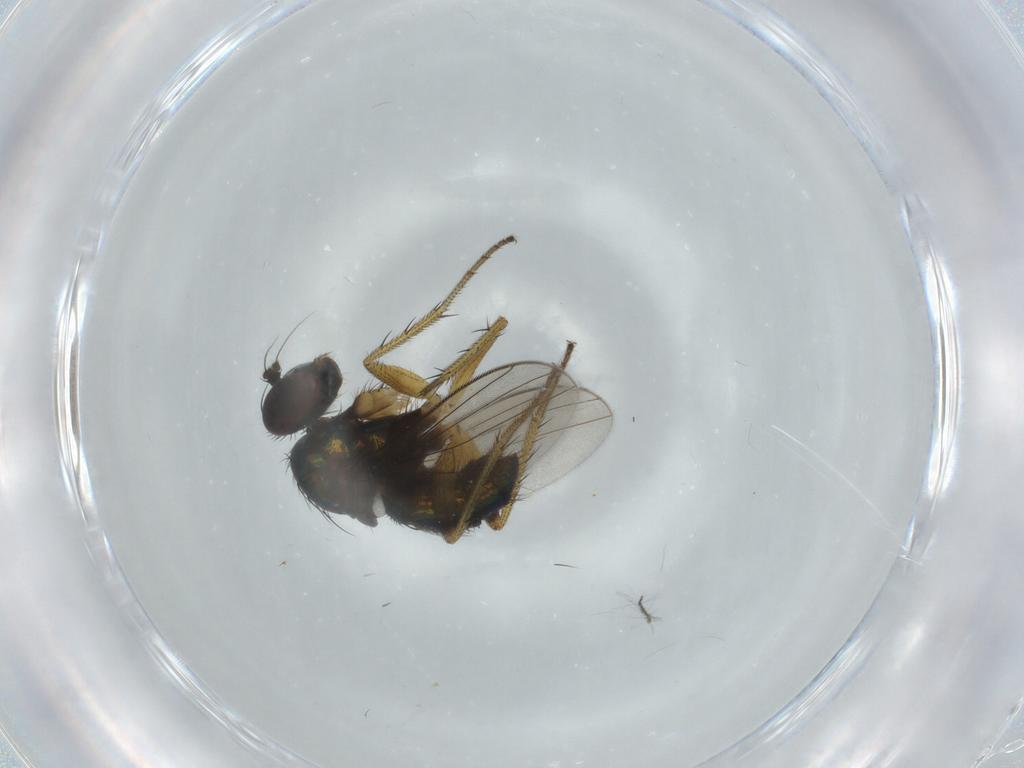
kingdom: Animalia
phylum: Arthropoda
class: Insecta
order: Diptera
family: Dolichopodidae
